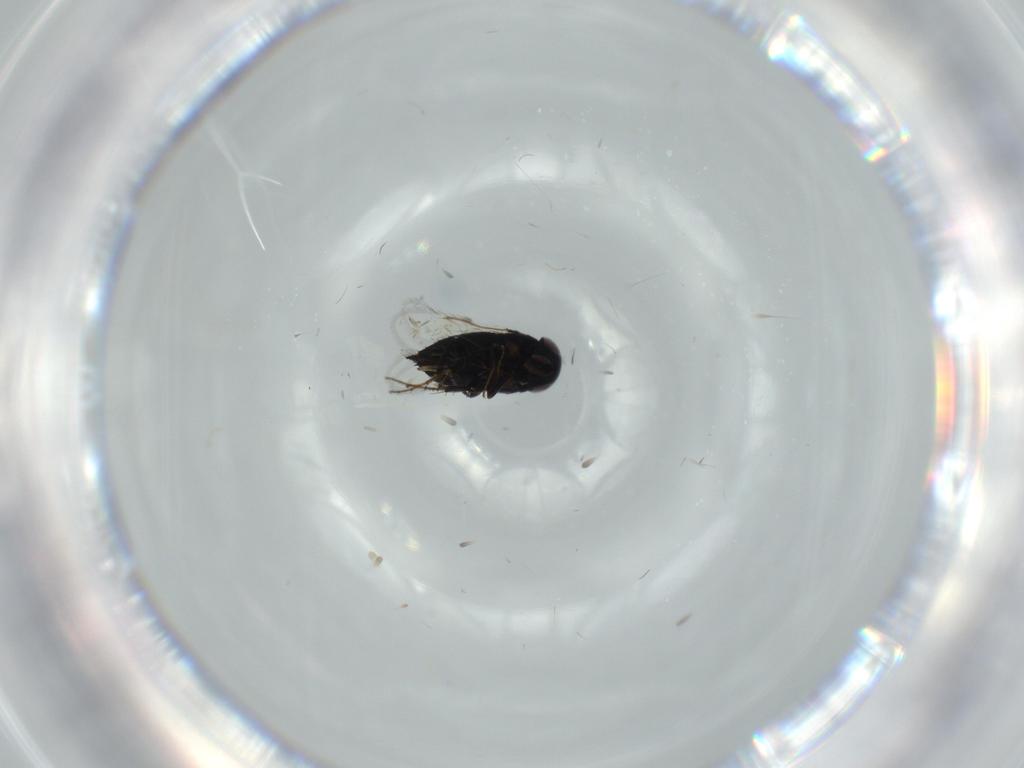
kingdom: Animalia
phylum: Arthropoda
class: Insecta
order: Hymenoptera
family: Signiphoridae
